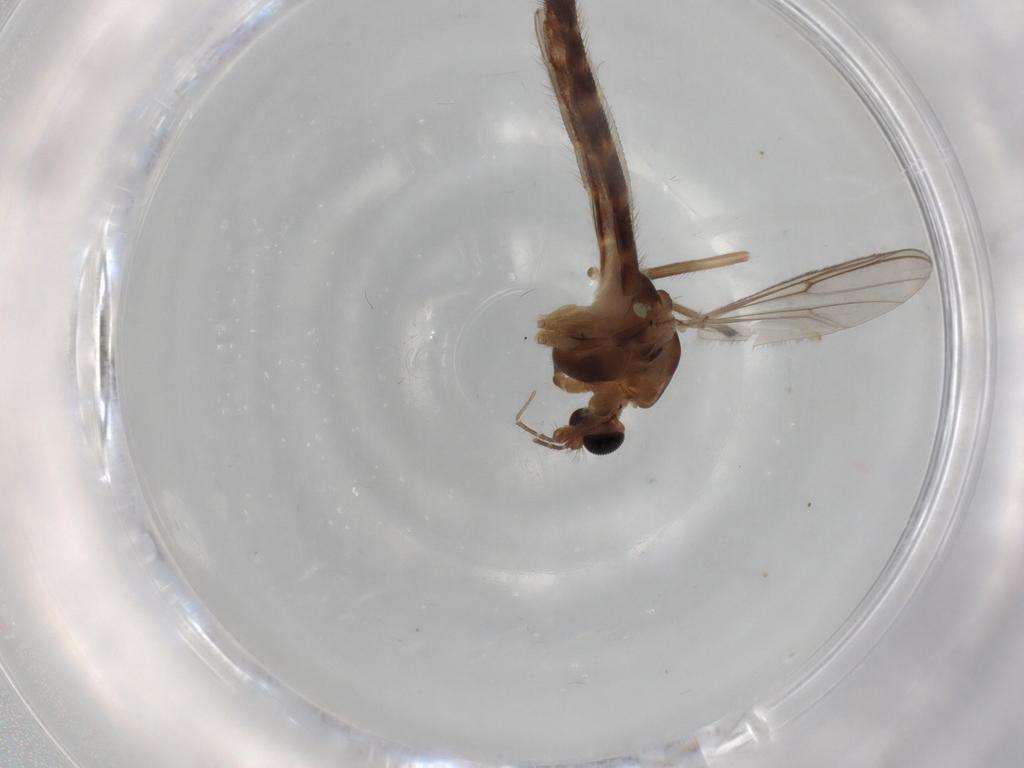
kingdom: Animalia
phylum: Arthropoda
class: Insecta
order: Diptera
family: Chironomidae
